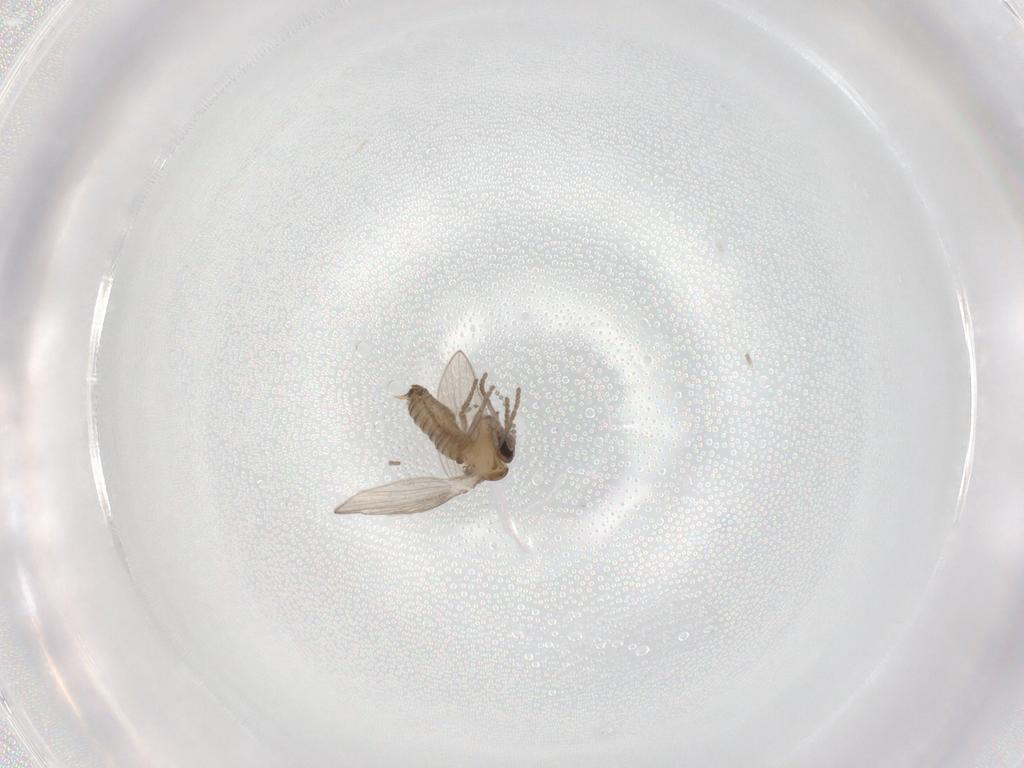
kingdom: Animalia
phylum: Arthropoda
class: Insecta
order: Diptera
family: Psychodidae
